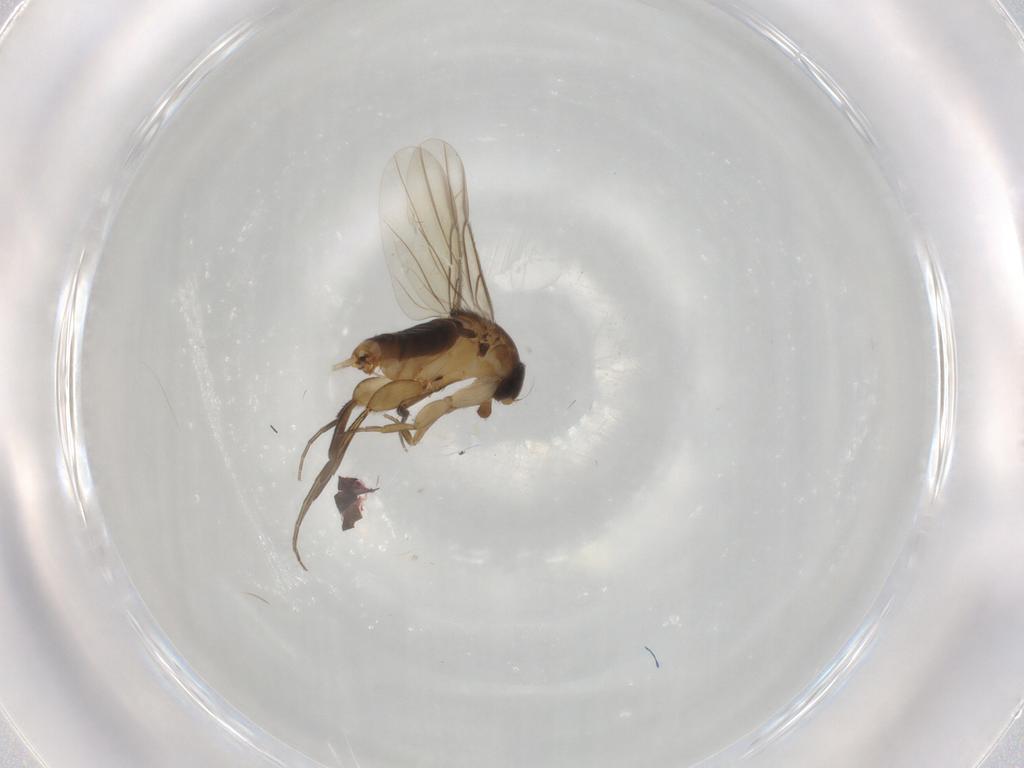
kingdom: Animalia
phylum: Arthropoda
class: Insecta
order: Diptera
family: Phoridae
